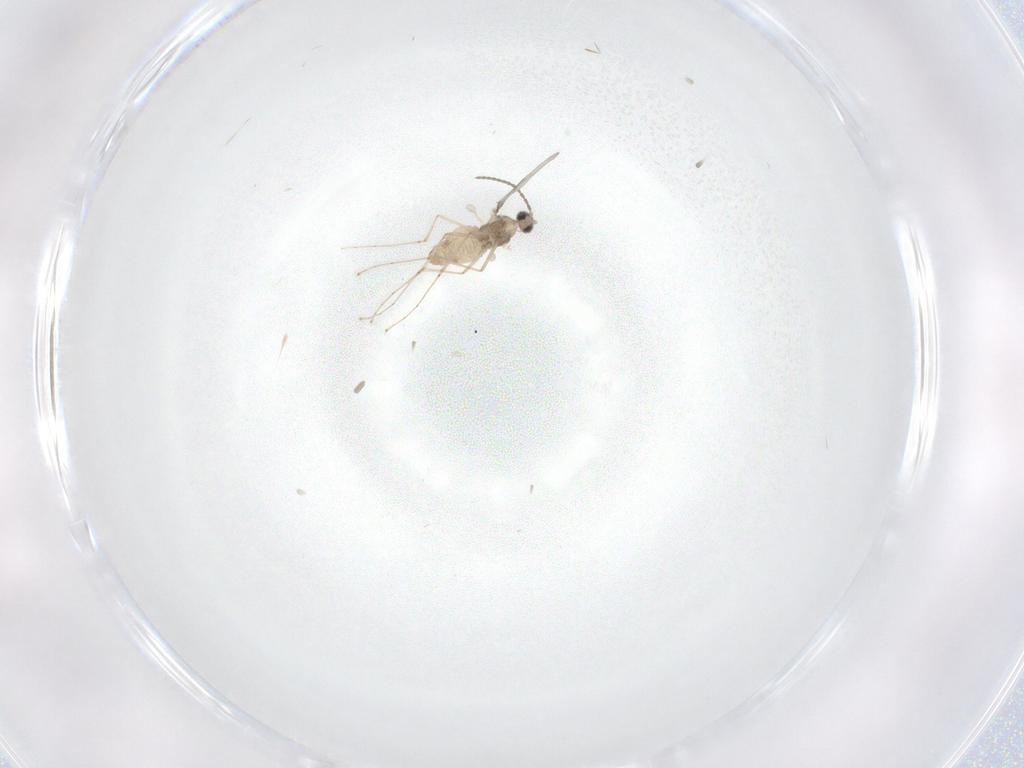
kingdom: Animalia
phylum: Arthropoda
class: Insecta
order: Diptera
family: Cecidomyiidae
